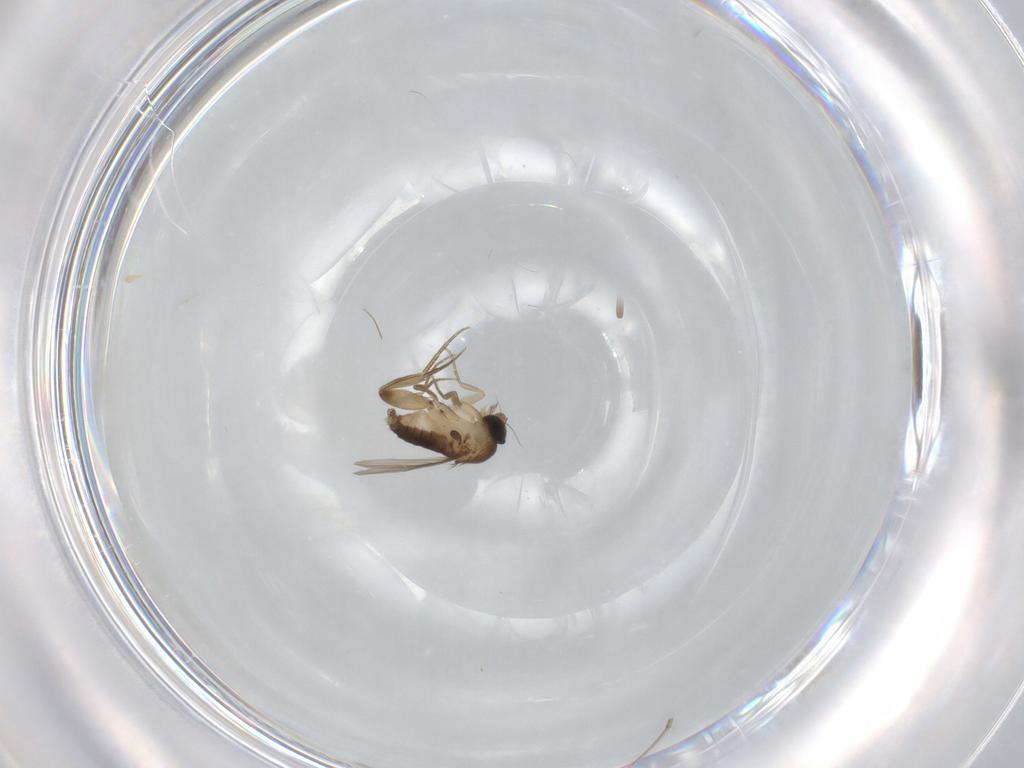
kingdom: Animalia
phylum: Arthropoda
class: Insecta
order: Diptera
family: Phoridae
